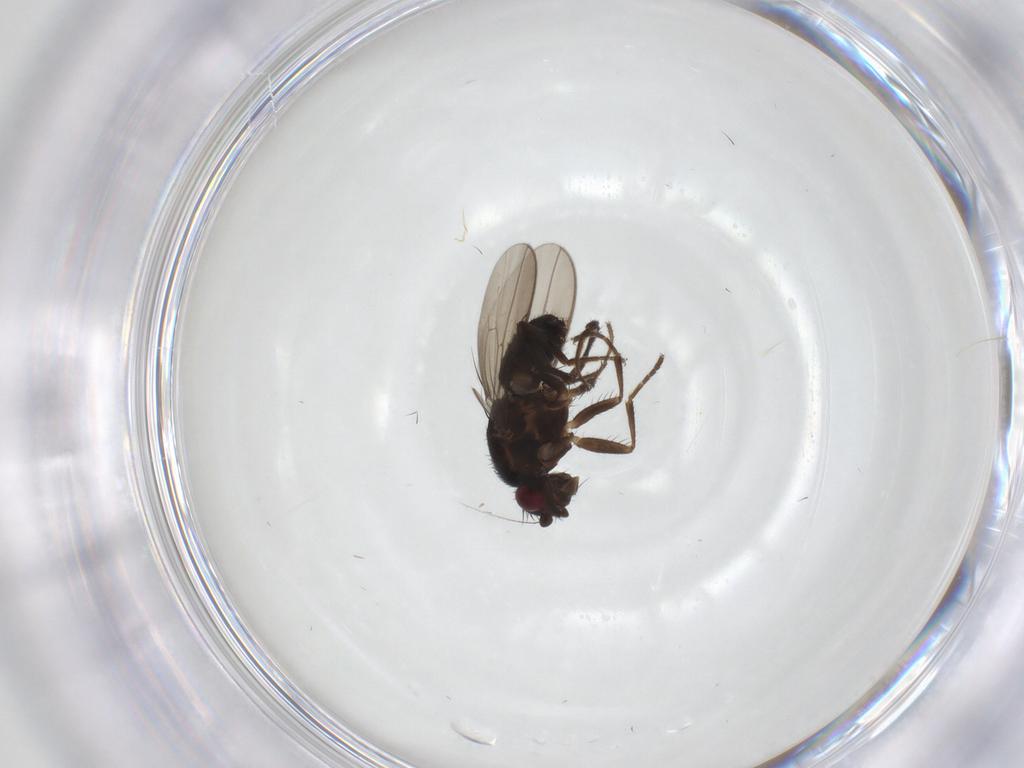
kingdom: Animalia
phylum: Arthropoda
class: Insecta
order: Diptera
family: Sphaeroceridae
